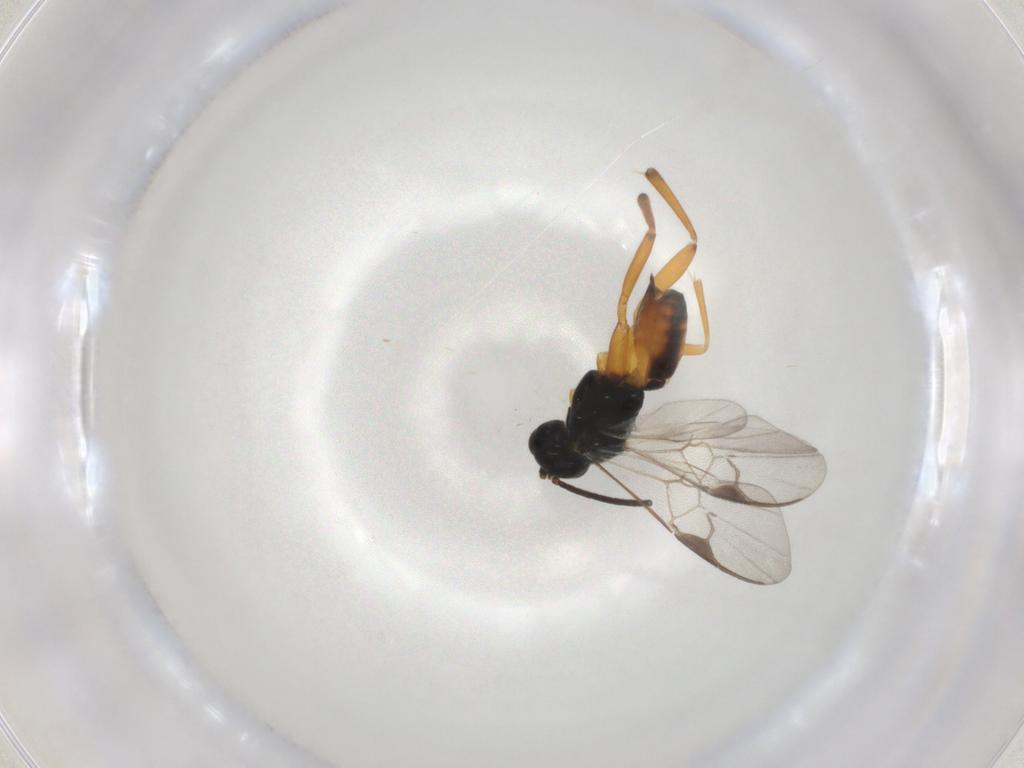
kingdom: Animalia
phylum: Arthropoda
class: Insecta
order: Hymenoptera
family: Braconidae
